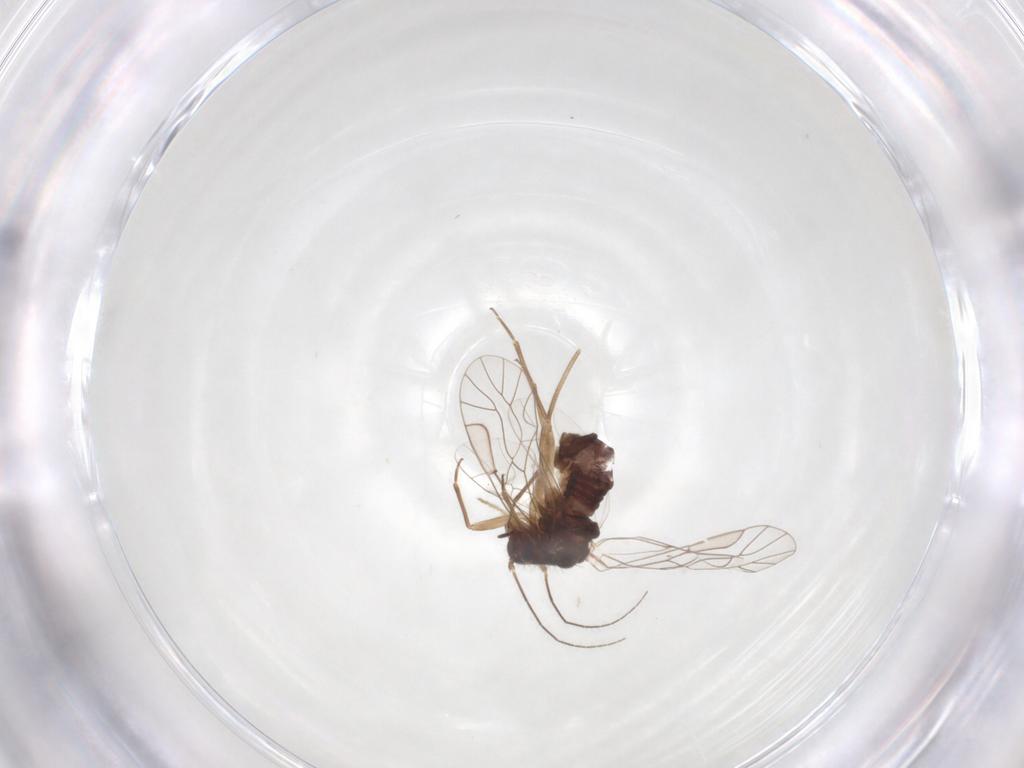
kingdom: Animalia
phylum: Arthropoda
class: Insecta
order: Psocodea
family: Lachesillidae
